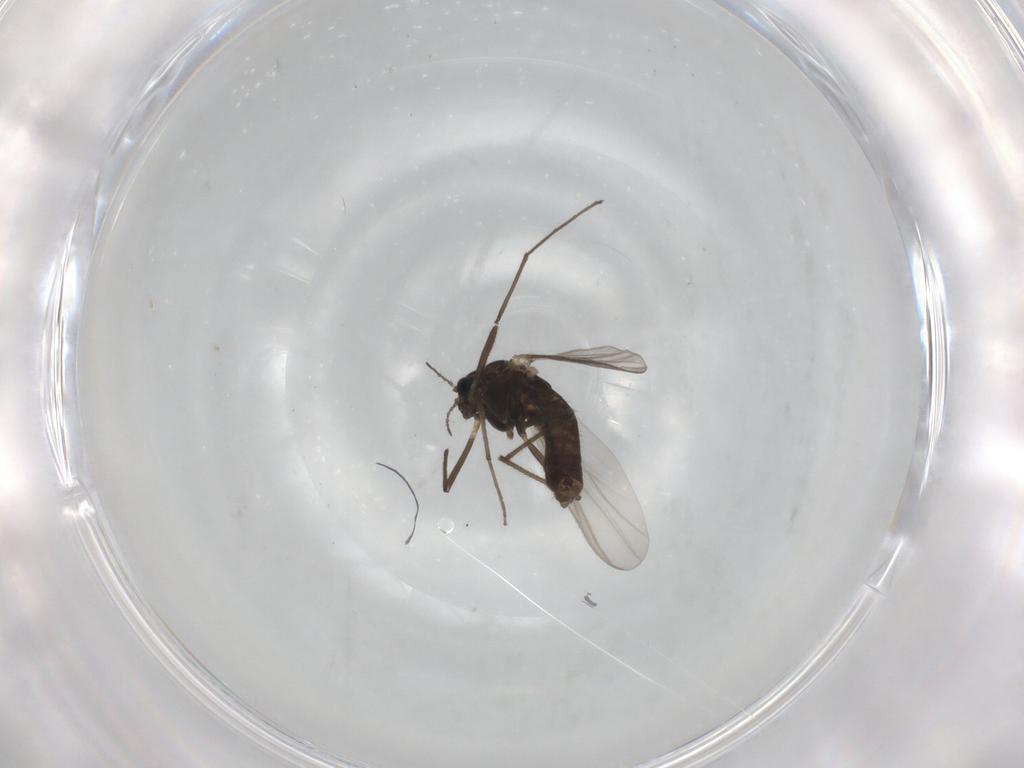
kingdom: Animalia
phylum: Arthropoda
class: Insecta
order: Diptera
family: Chironomidae
